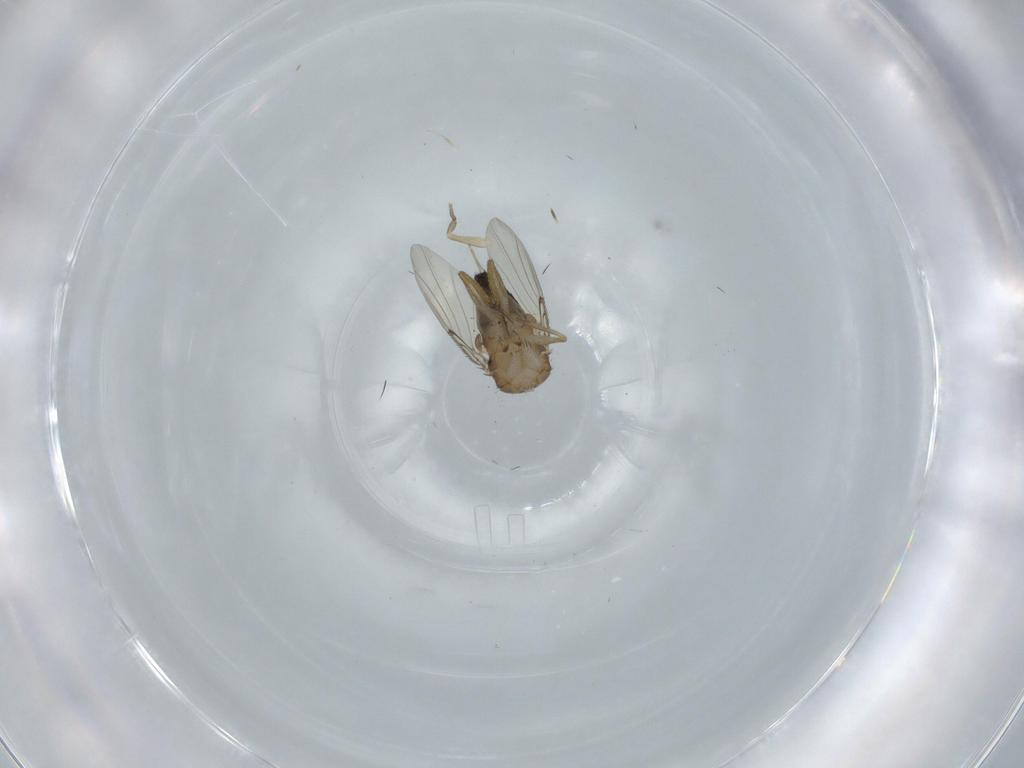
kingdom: Animalia
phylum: Arthropoda
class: Insecta
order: Diptera
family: Phoridae
